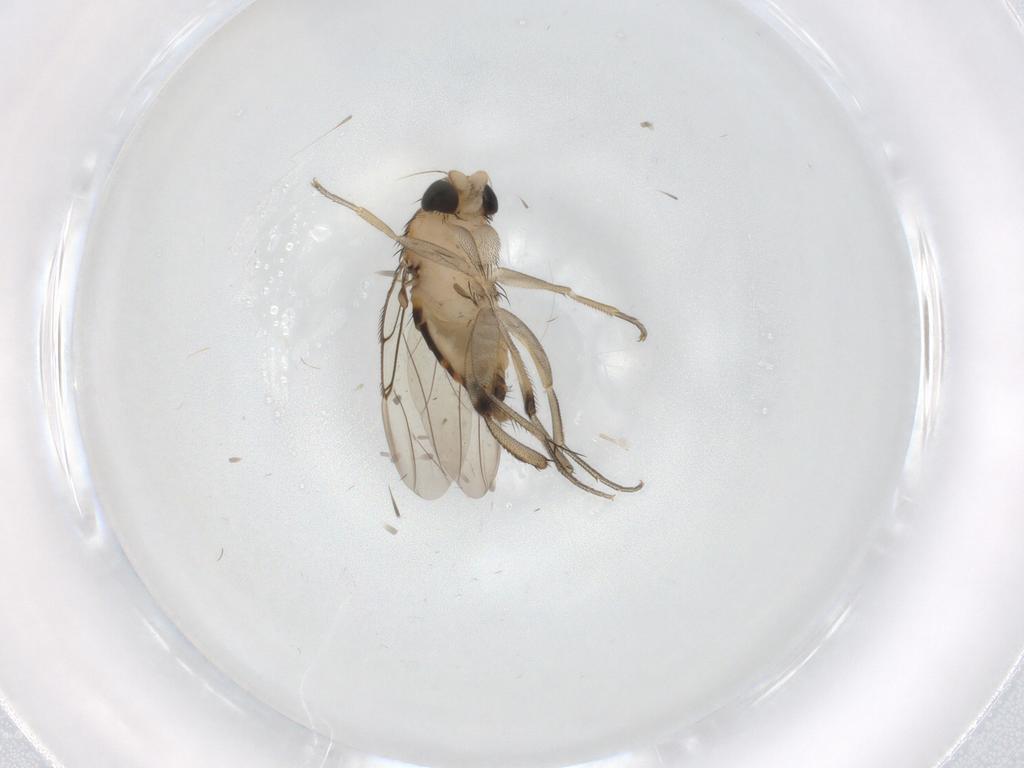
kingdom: Animalia
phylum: Arthropoda
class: Insecta
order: Diptera
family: Phoridae
